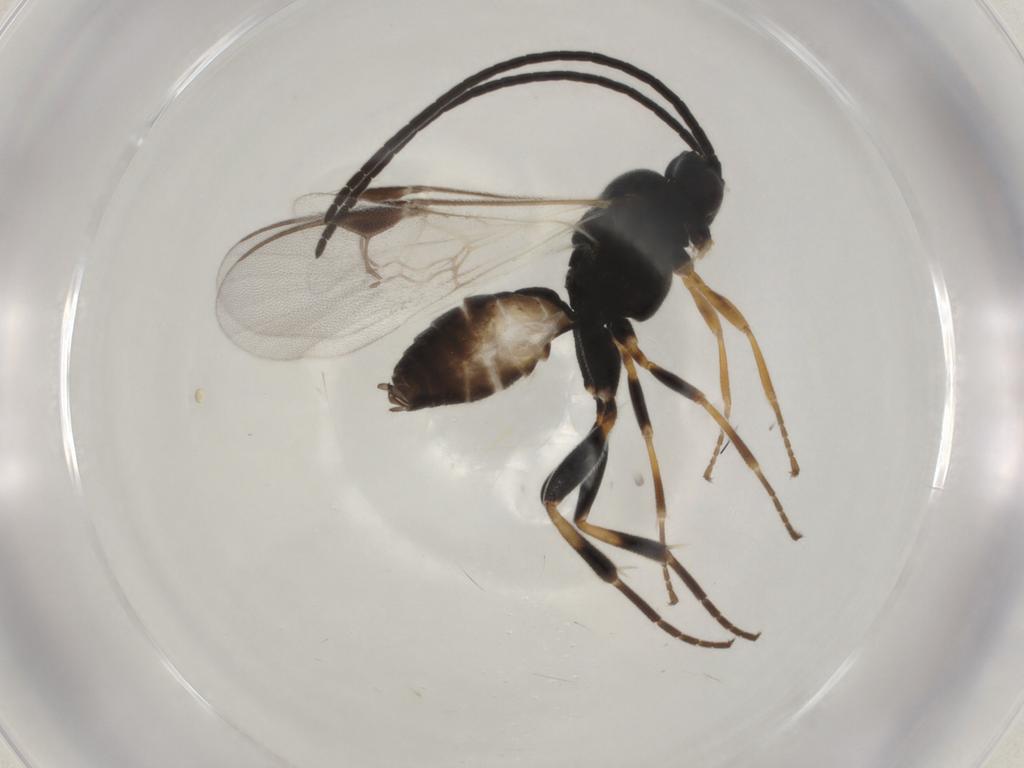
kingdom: Animalia
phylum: Arthropoda
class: Insecta
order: Hymenoptera
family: Braconidae
